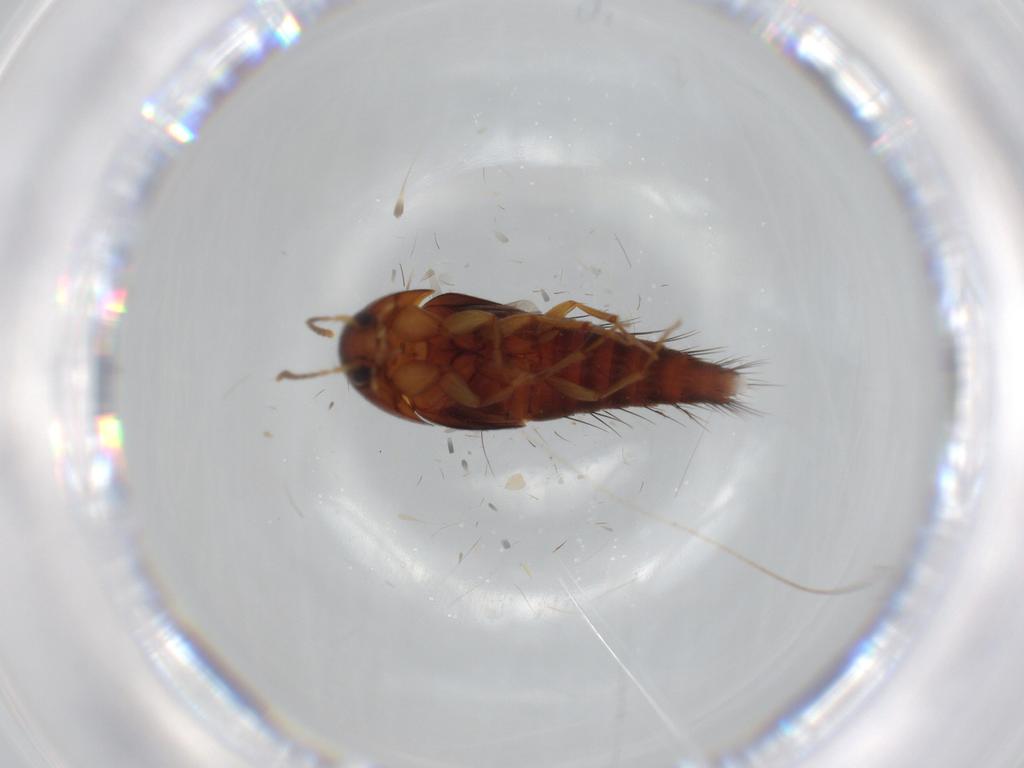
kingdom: Animalia
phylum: Arthropoda
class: Insecta
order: Coleoptera
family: Staphylinidae
